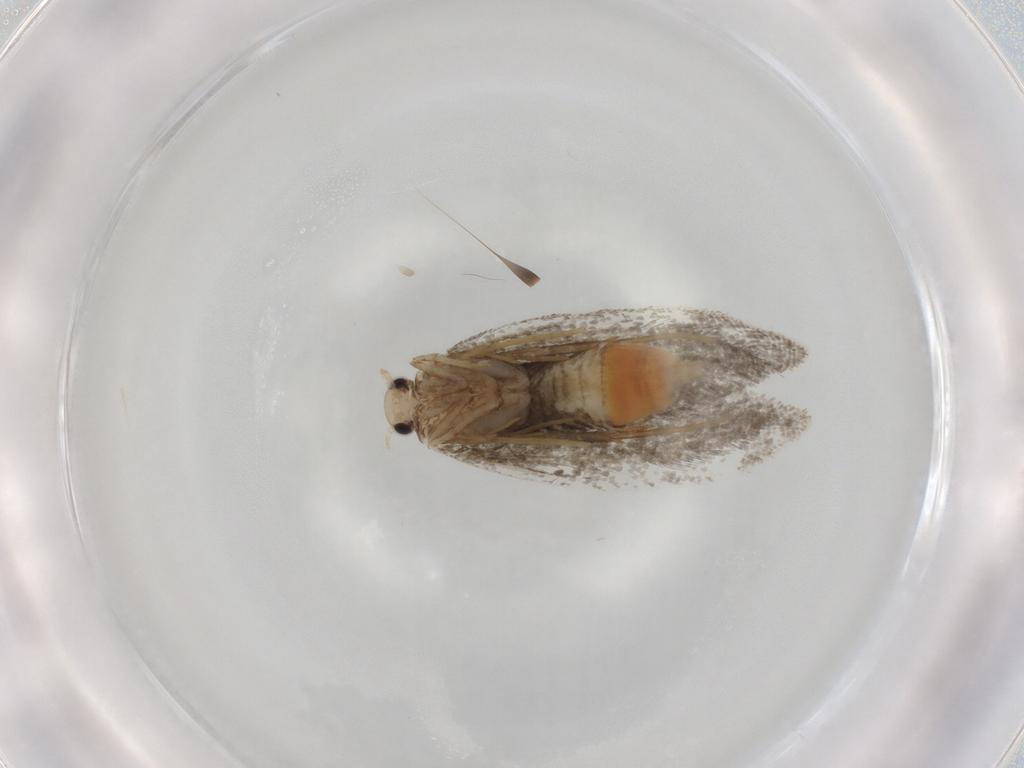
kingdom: Animalia
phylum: Arthropoda
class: Insecta
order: Lepidoptera
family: Psychidae
